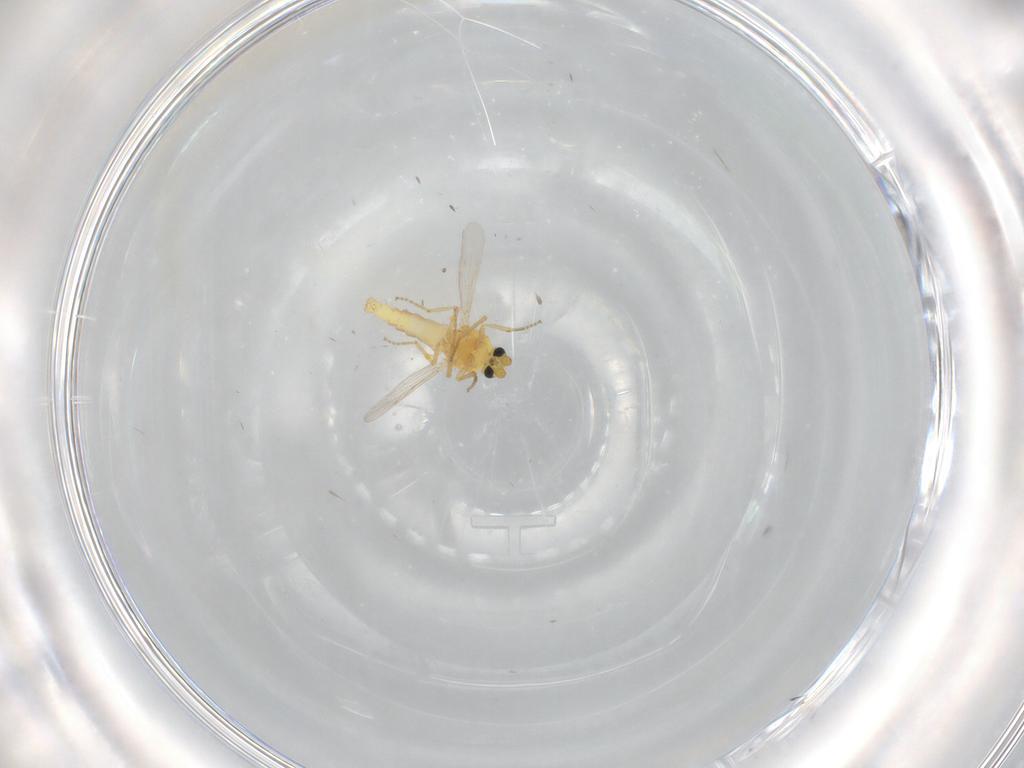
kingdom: Animalia
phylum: Arthropoda
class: Insecta
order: Diptera
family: Ceratopogonidae
